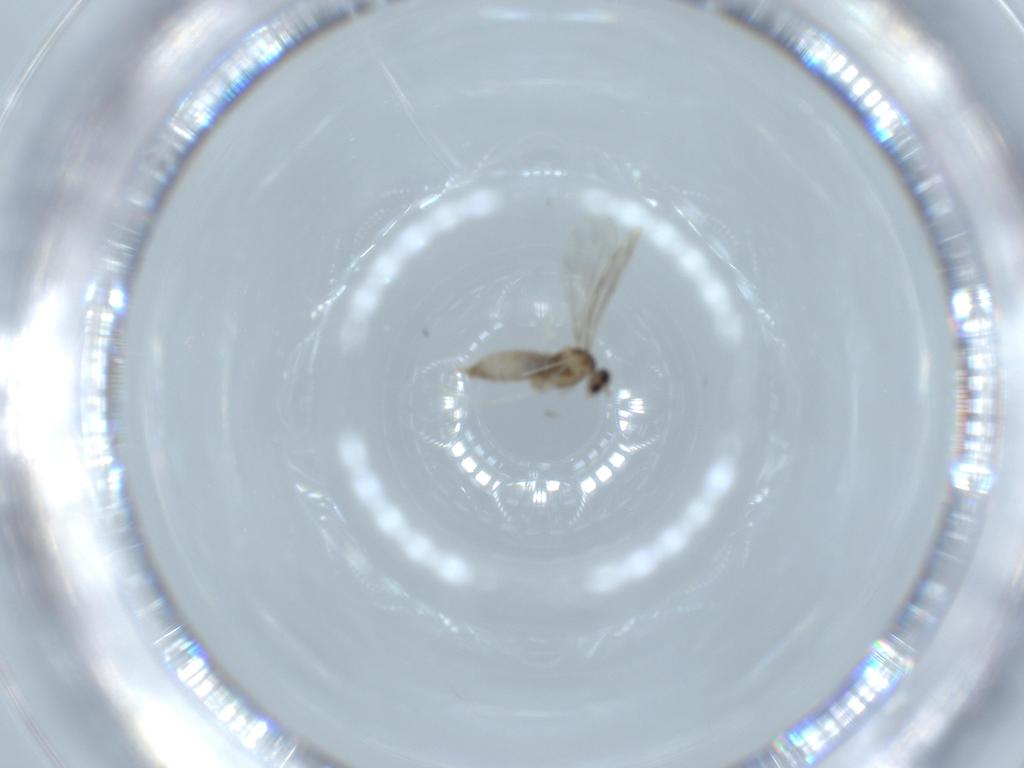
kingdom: Animalia
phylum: Arthropoda
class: Insecta
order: Diptera
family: Cecidomyiidae
